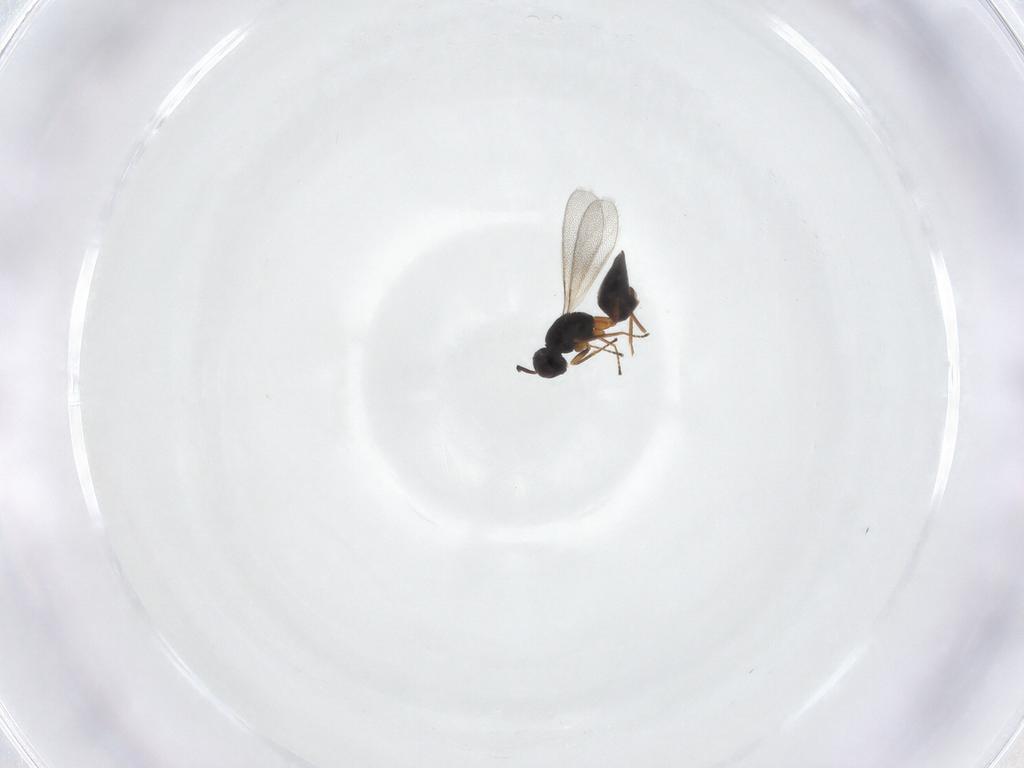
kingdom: Animalia
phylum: Arthropoda
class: Insecta
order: Hymenoptera
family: Mymaridae
